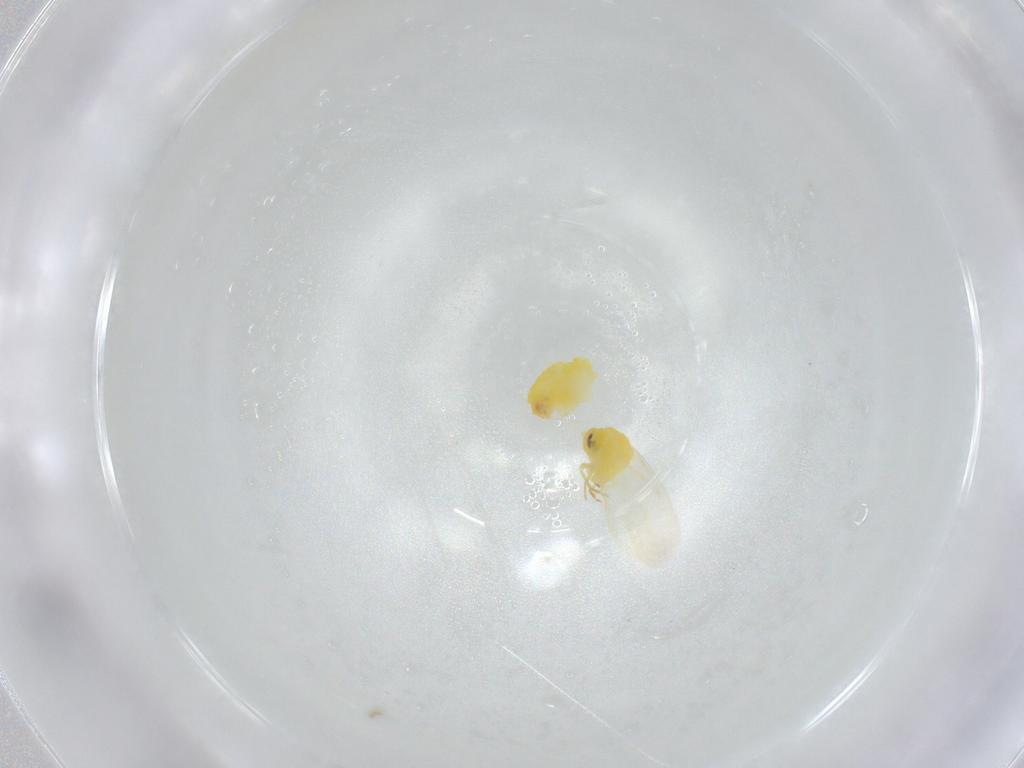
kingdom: Animalia
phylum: Arthropoda
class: Insecta
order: Hemiptera
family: Aleyrodidae
